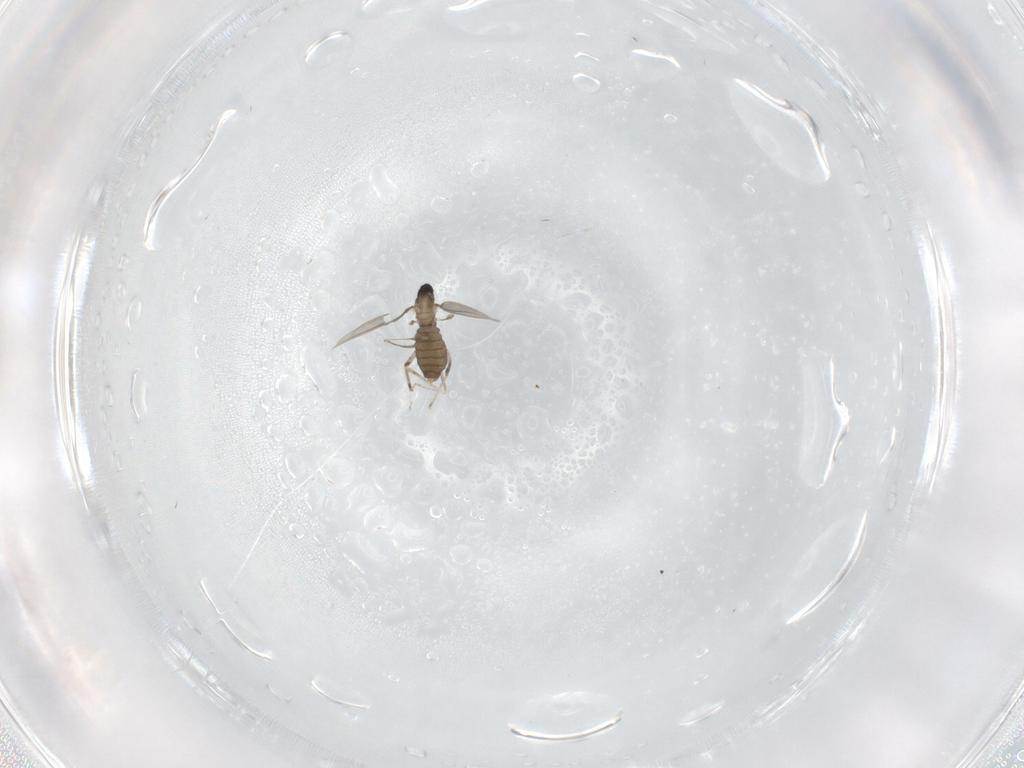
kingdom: Animalia
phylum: Arthropoda
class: Insecta
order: Diptera
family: Cecidomyiidae
